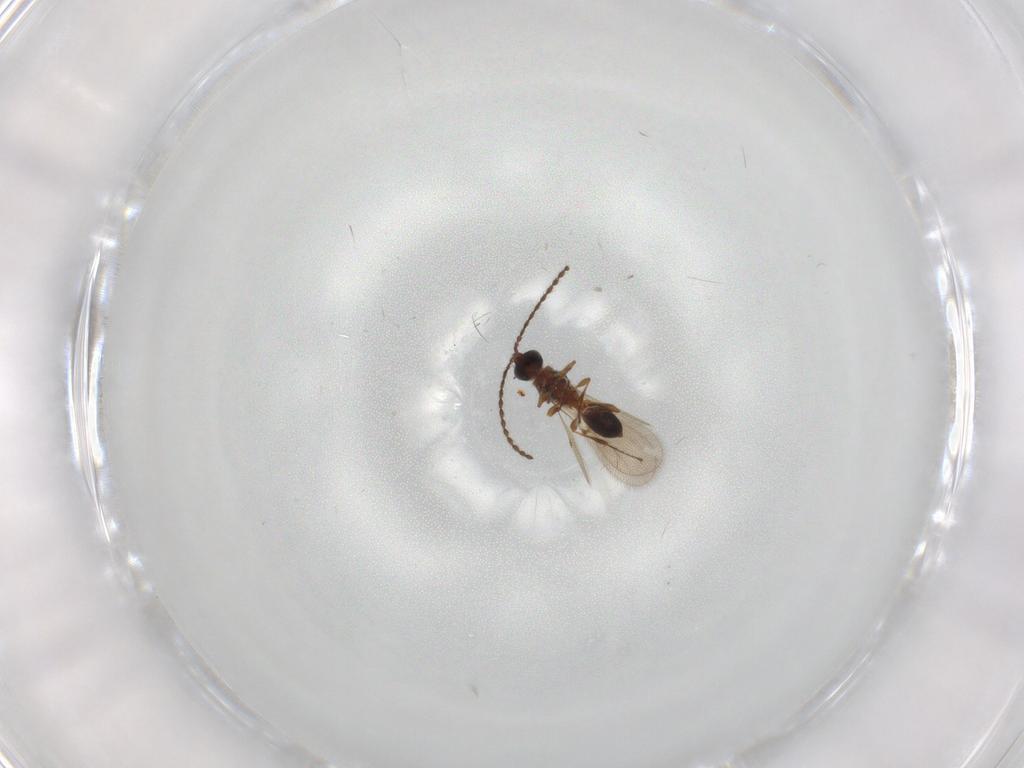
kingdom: Animalia
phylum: Arthropoda
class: Insecta
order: Hymenoptera
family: Diapriidae
